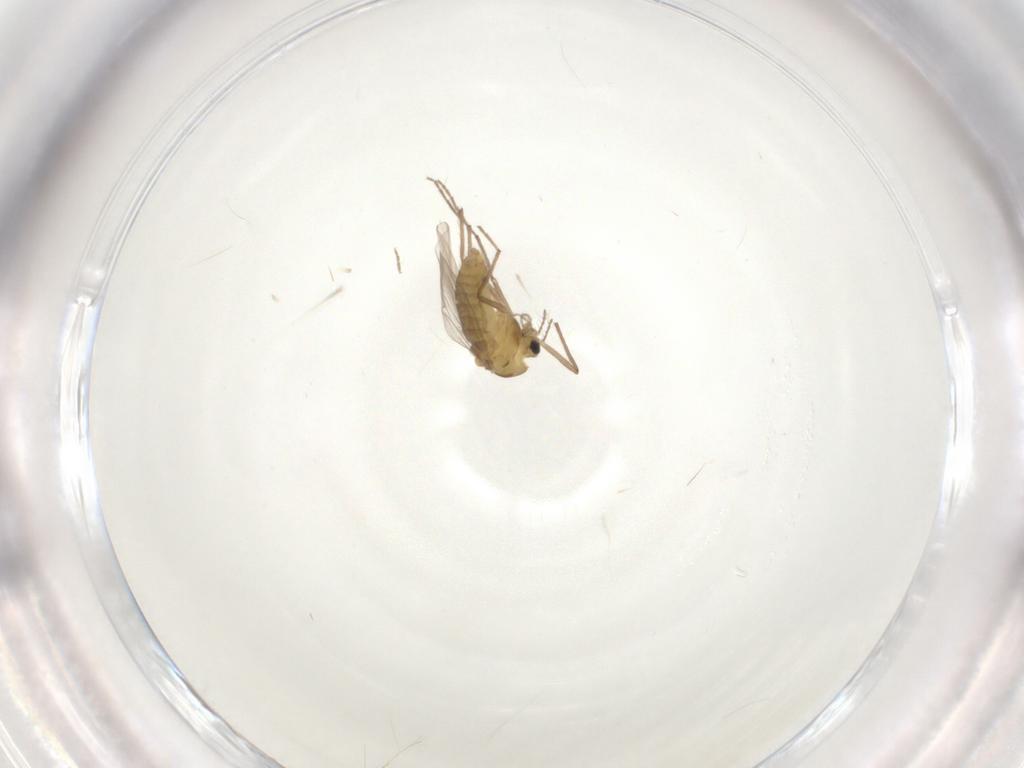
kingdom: Animalia
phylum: Arthropoda
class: Insecta
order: Diptera
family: Chironomidae
